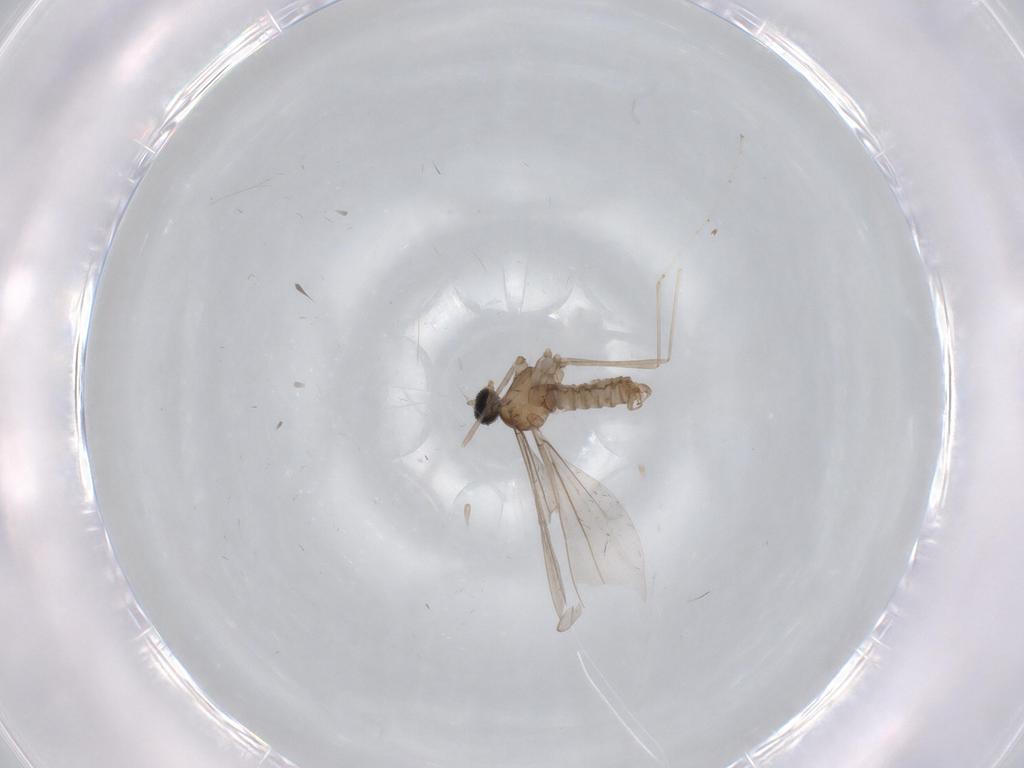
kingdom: Animalia
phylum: Arthropoda
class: Insecta
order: Diptera
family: Cecidomyiidae
